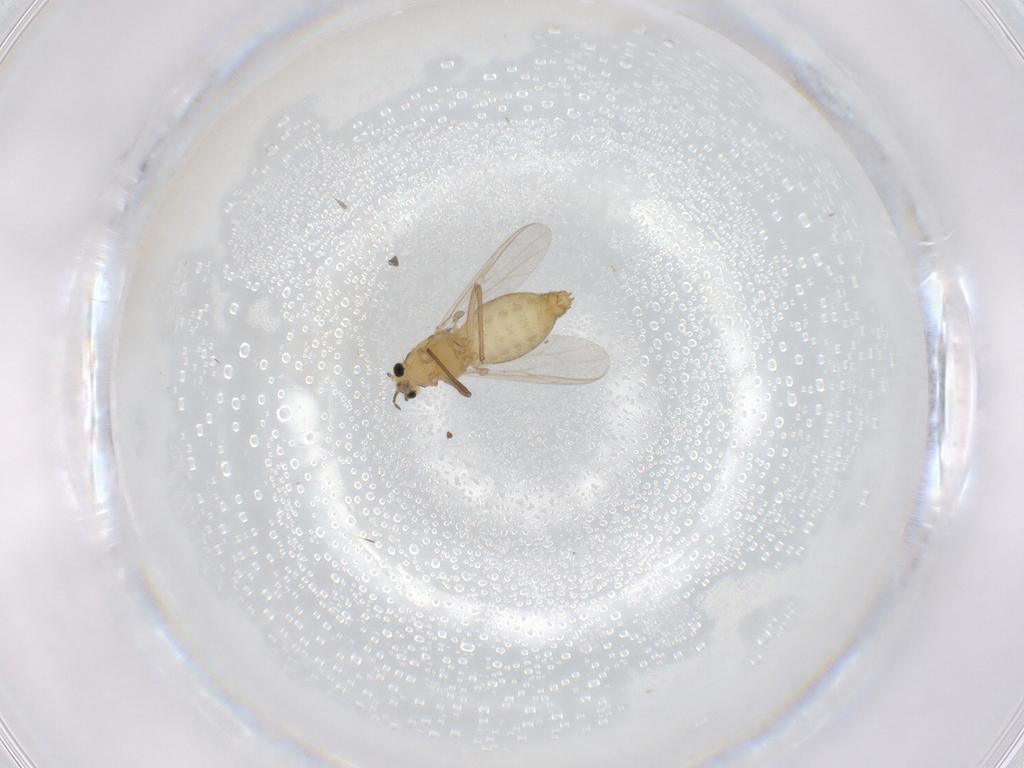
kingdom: Animalia
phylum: Arthropoda
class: Insecta
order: Diptera
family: Chironomidae
